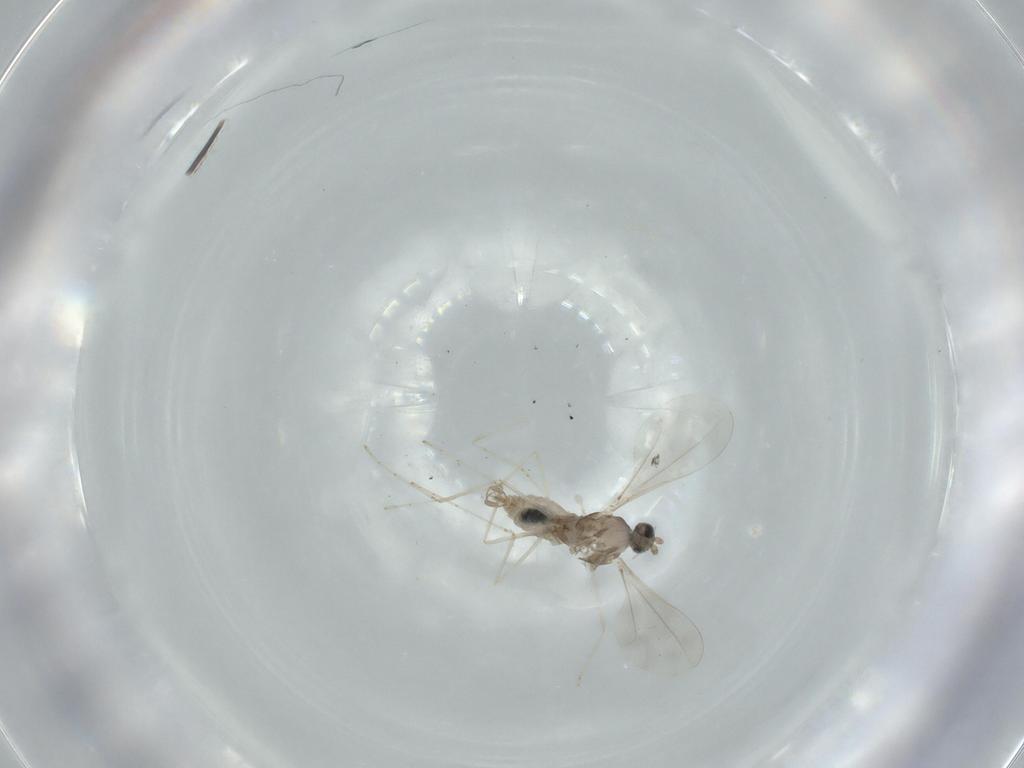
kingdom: Animalia
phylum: Arthropoda
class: Insecta
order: Diptera
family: Cecidomyiidae
